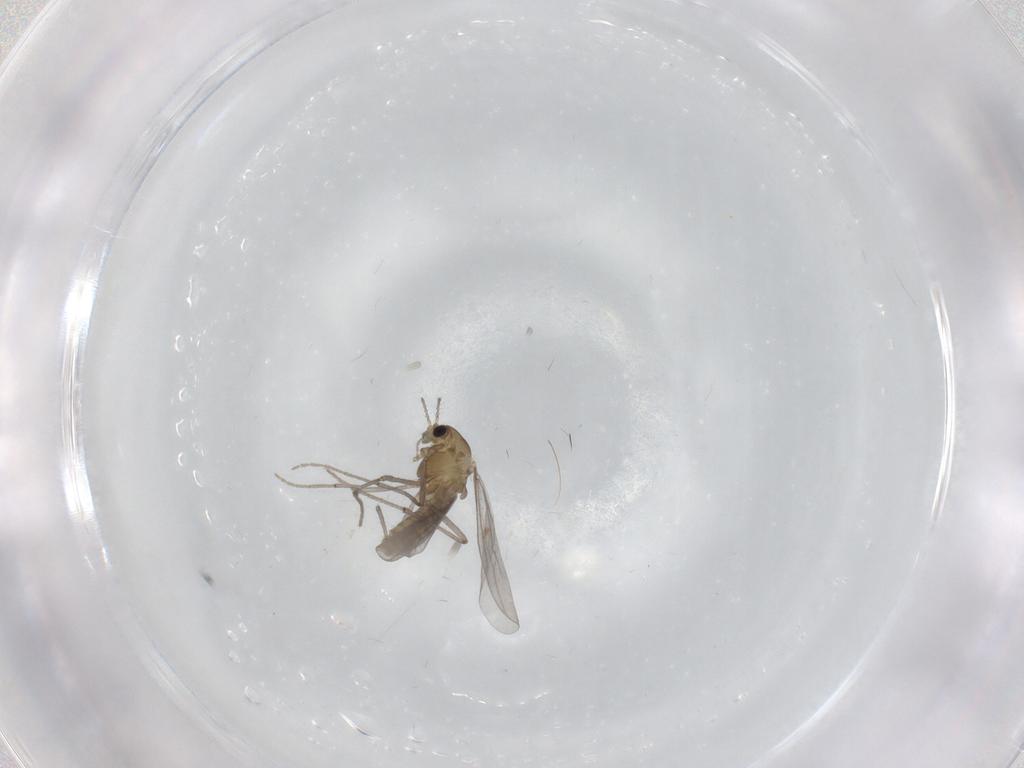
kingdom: Animalia
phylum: Arthropoda
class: Insecta
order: Diptera
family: Chironomidae
